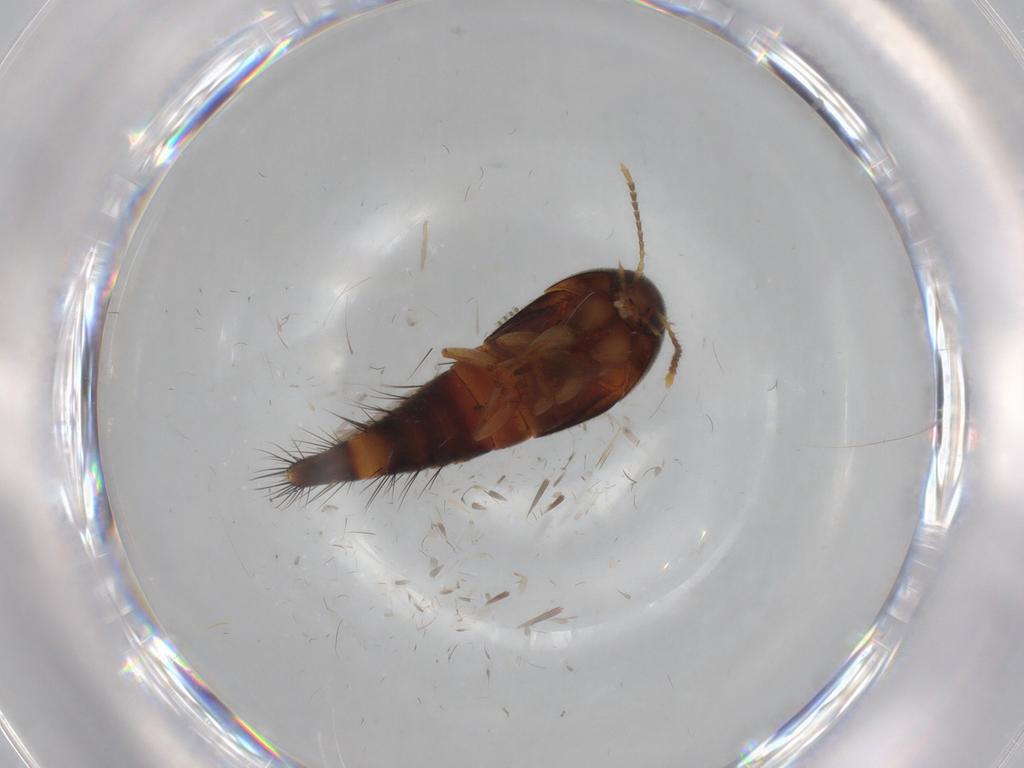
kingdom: Animalia
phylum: Arthropoda
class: Insecta
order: Coleoptera
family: Staphylinidae
